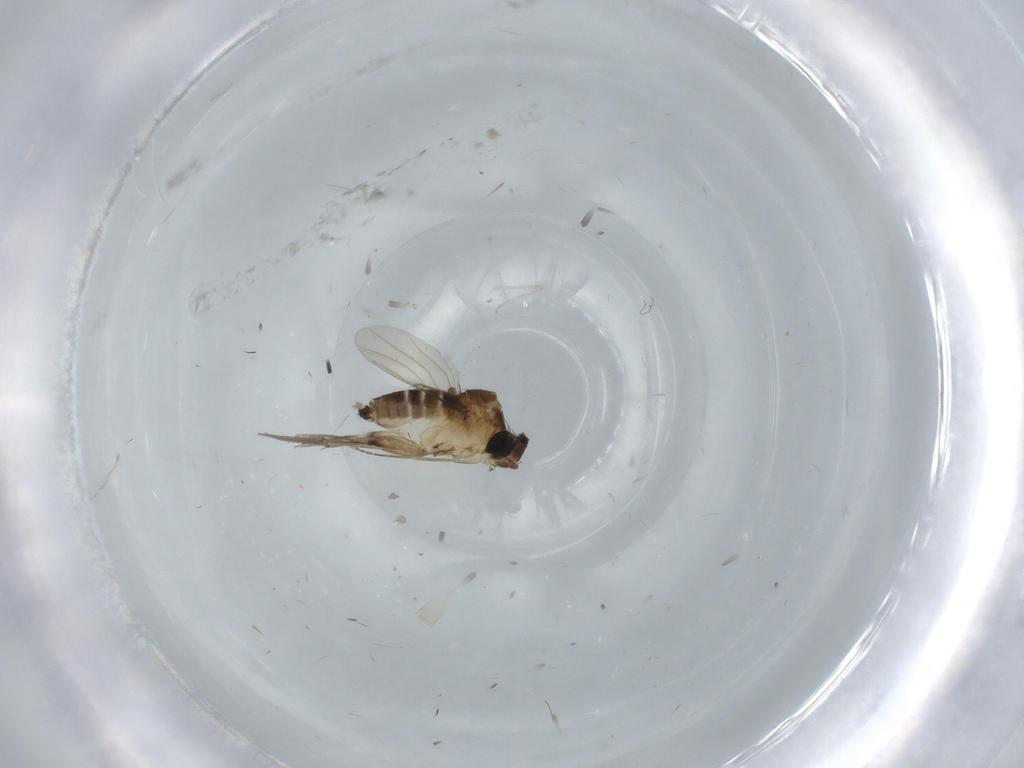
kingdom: Animalia
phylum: Arthropoda
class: Insecta
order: Diptera
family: Phoridae
